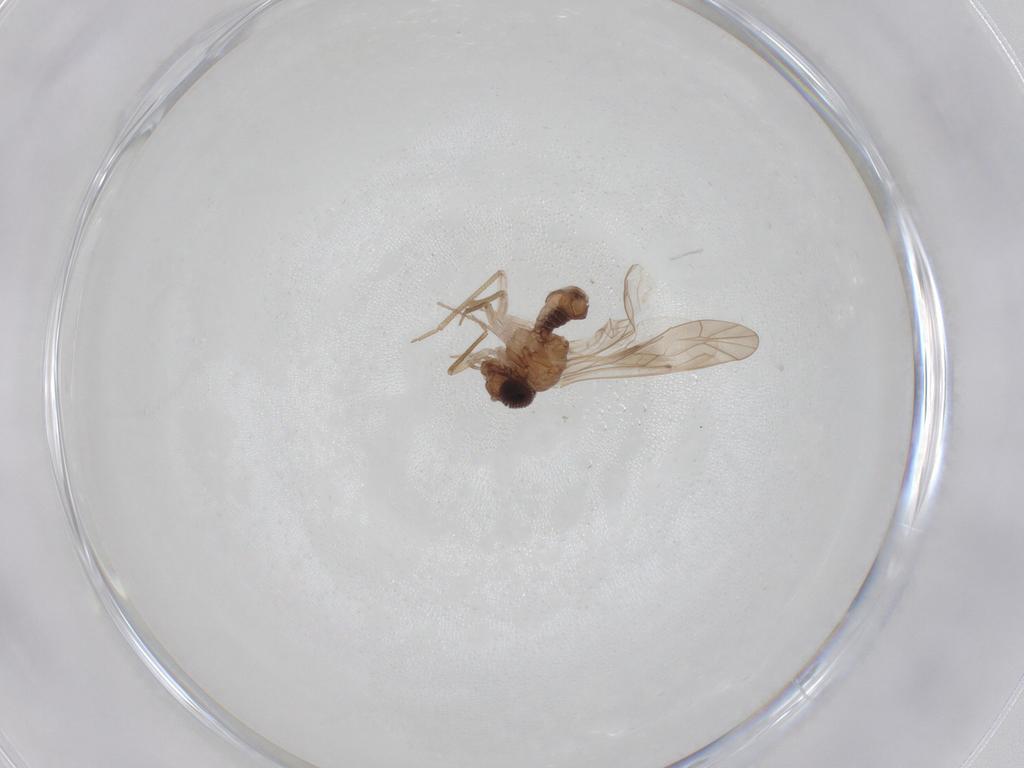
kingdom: Animalia
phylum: Arthropoda
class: Insecta
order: Psocodea
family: Peripsocidae
